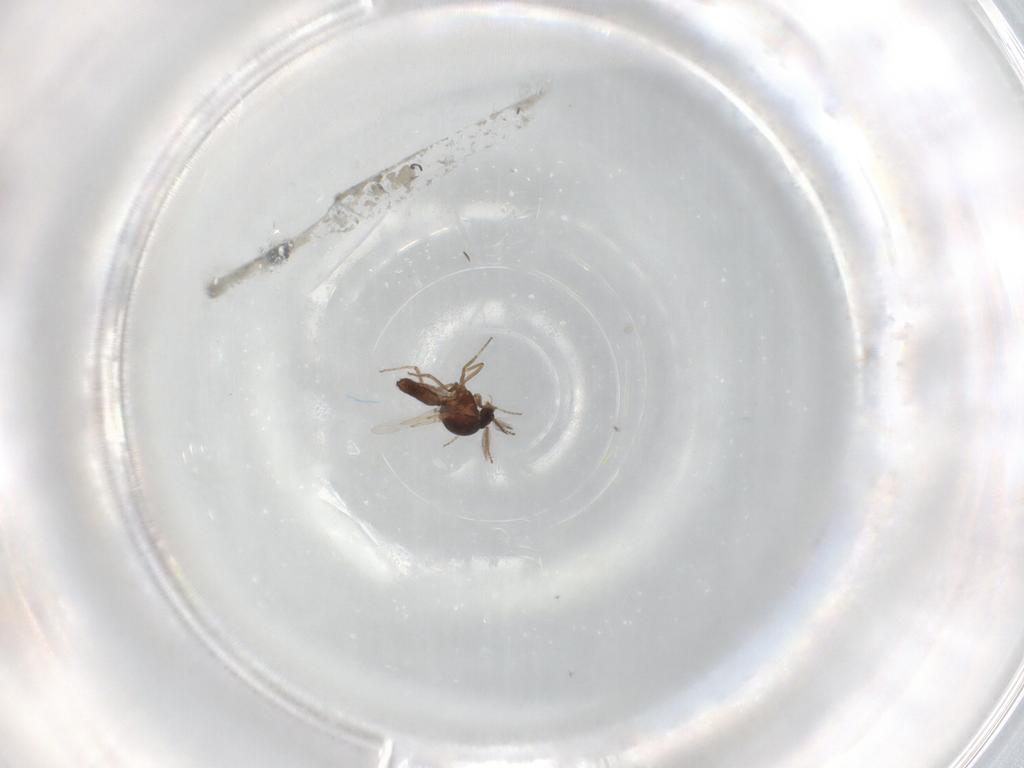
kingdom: Animalia
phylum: Arthropoda
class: Insecta
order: Diptera
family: Ceratopogonidae
